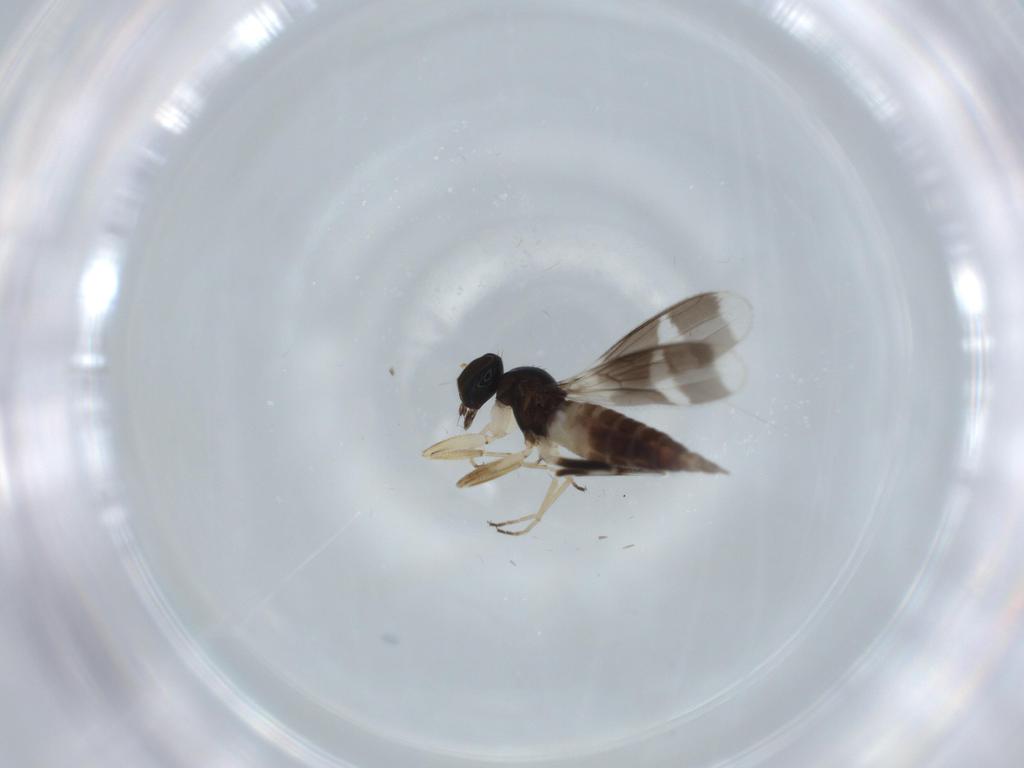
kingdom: Animalia
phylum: Arthropoda
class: Insecta
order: Diptera
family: Hybotidae
